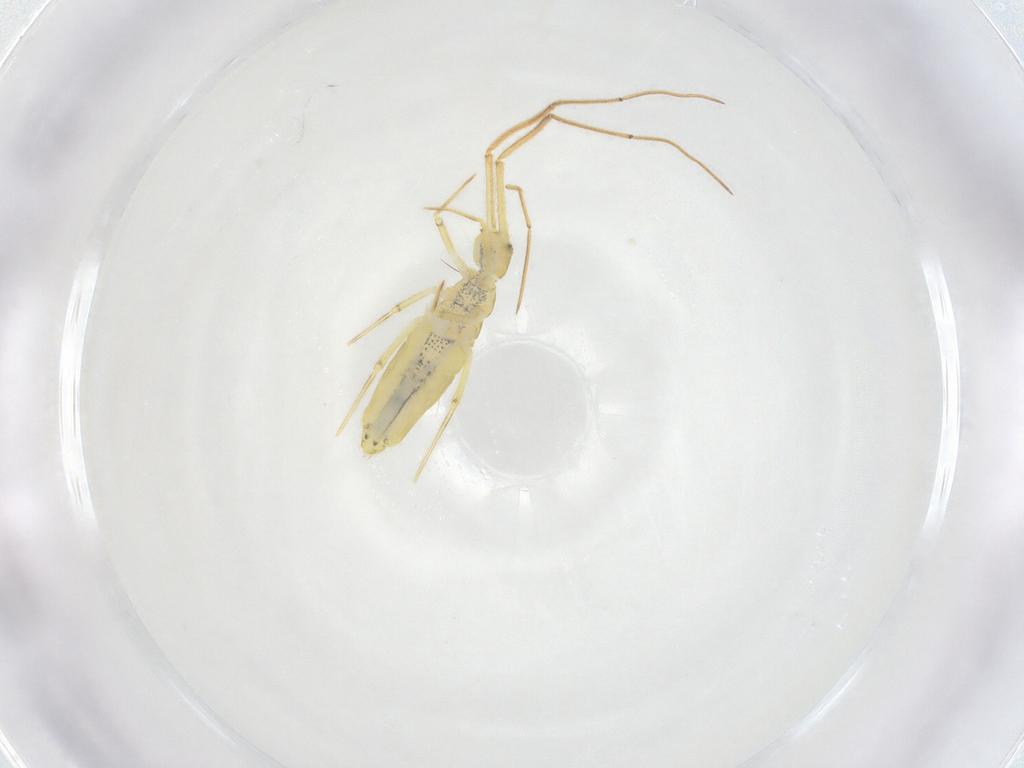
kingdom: Animalia
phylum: Arthropoda
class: Collembola
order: Entomobryomorpha
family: Paronellidae
